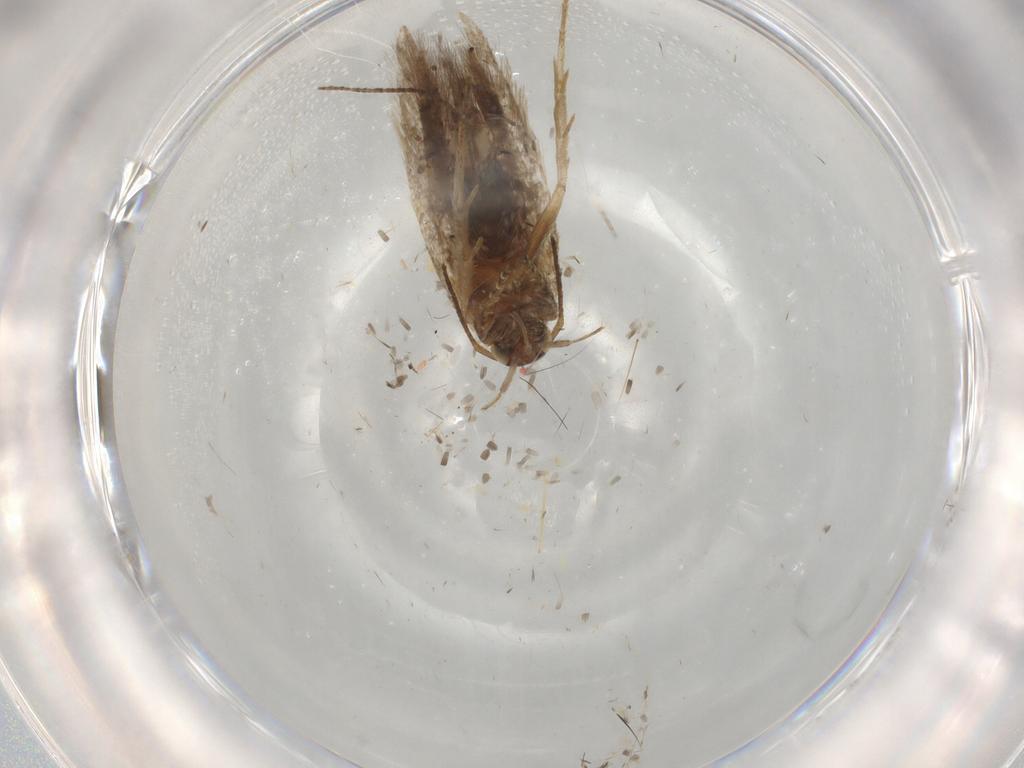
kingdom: Animalia
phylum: Arthropoda
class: Insecta
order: Lepidoptera
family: Gelechiidae
